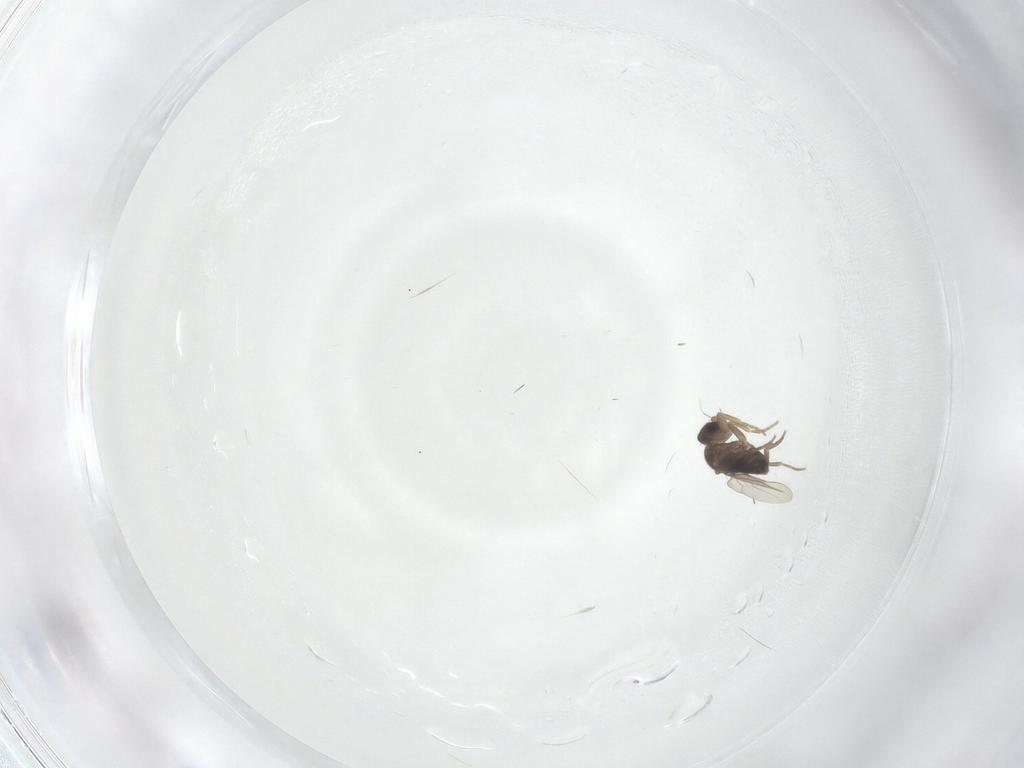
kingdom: Animalia
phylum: Arthropoda
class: Insecta
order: Diptera
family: Phoridae
